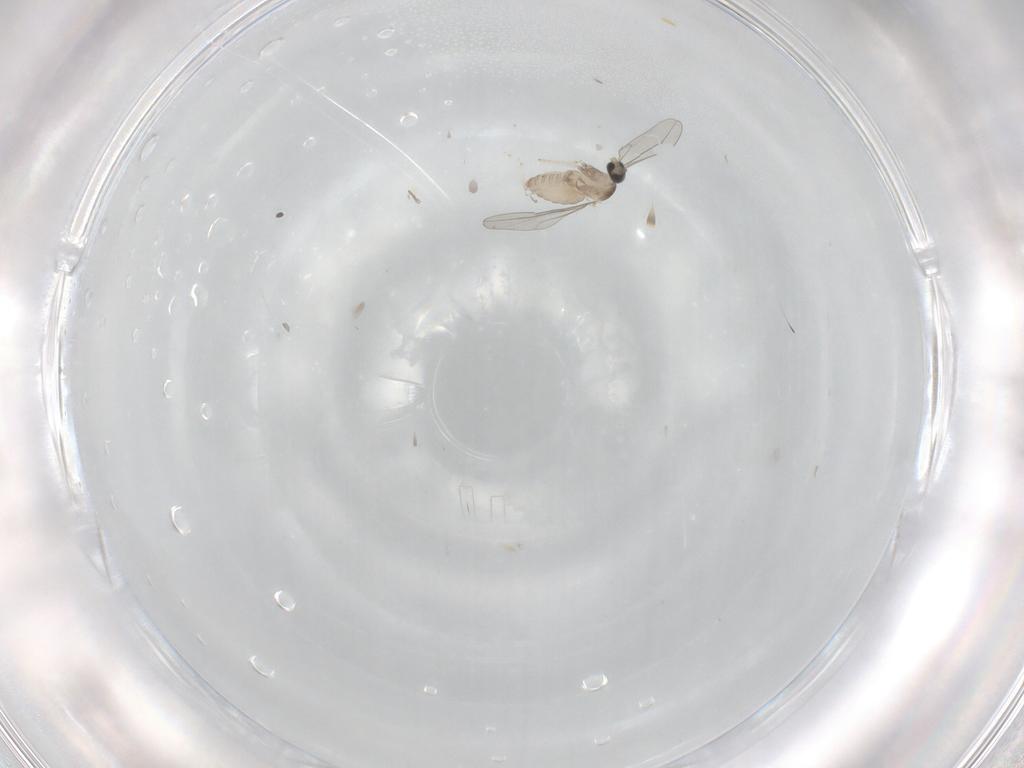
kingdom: Animalia
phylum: Arthropoda
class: Insecta
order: Diptera
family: Cecidomyiidae
